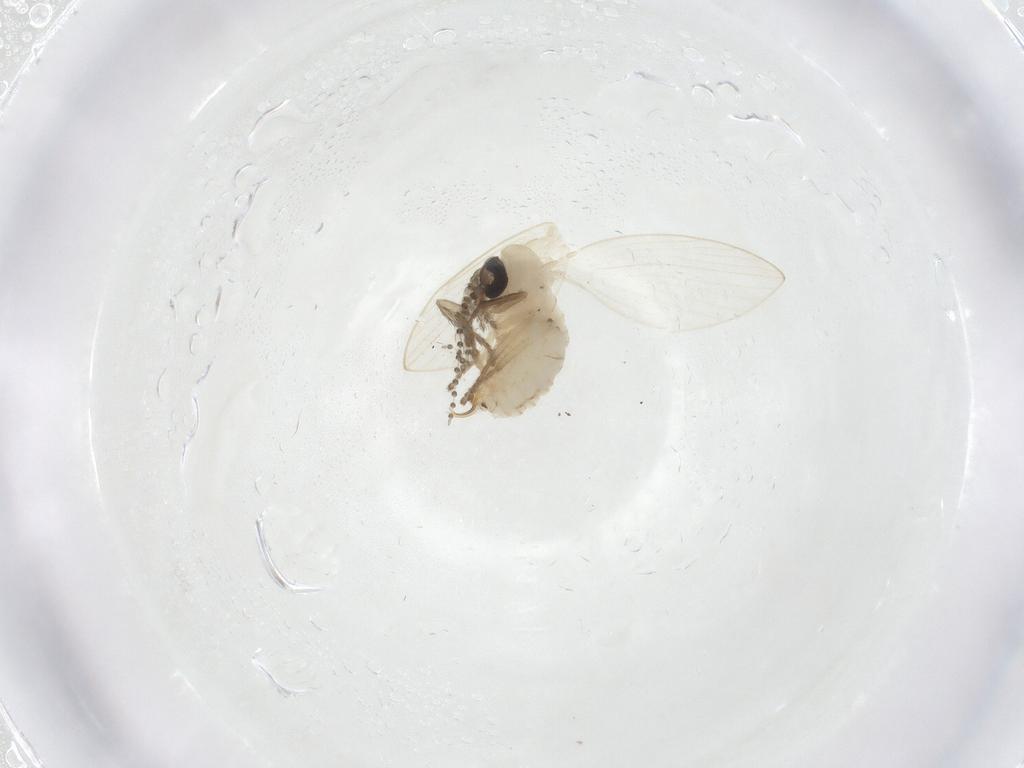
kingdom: Animalia
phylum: Arthropoda
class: Insecta
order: Diptera
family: Psychodidae
